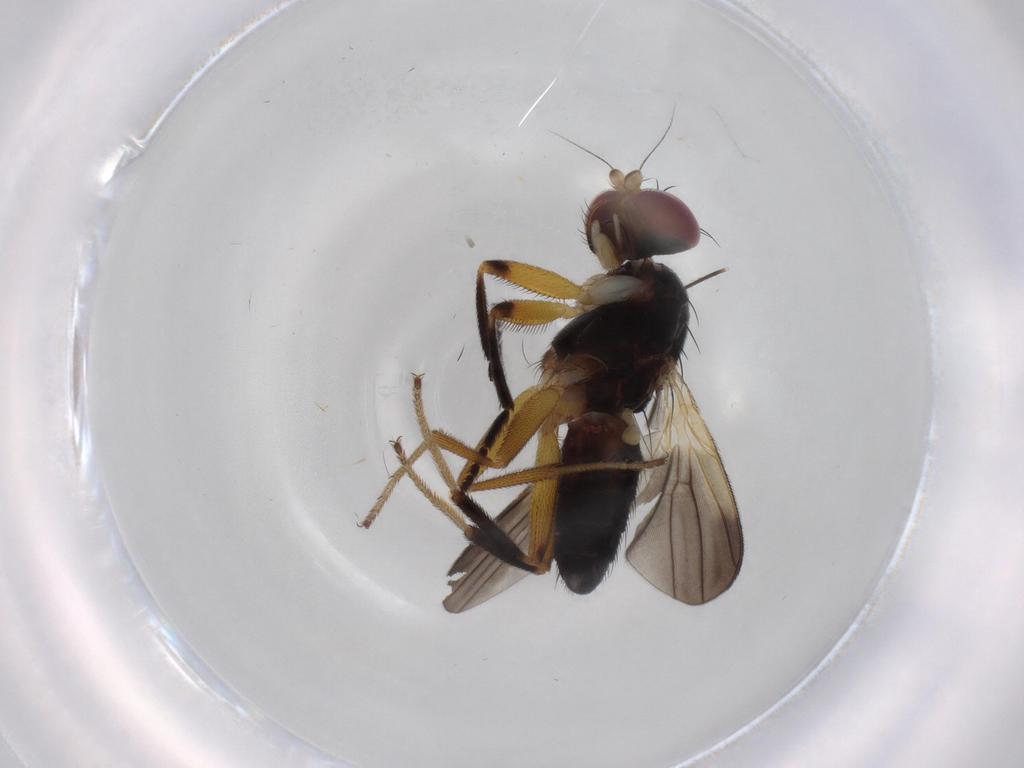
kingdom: Animalia
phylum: Arthropoda
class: Insecta
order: Diptera
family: Agromyzidae
